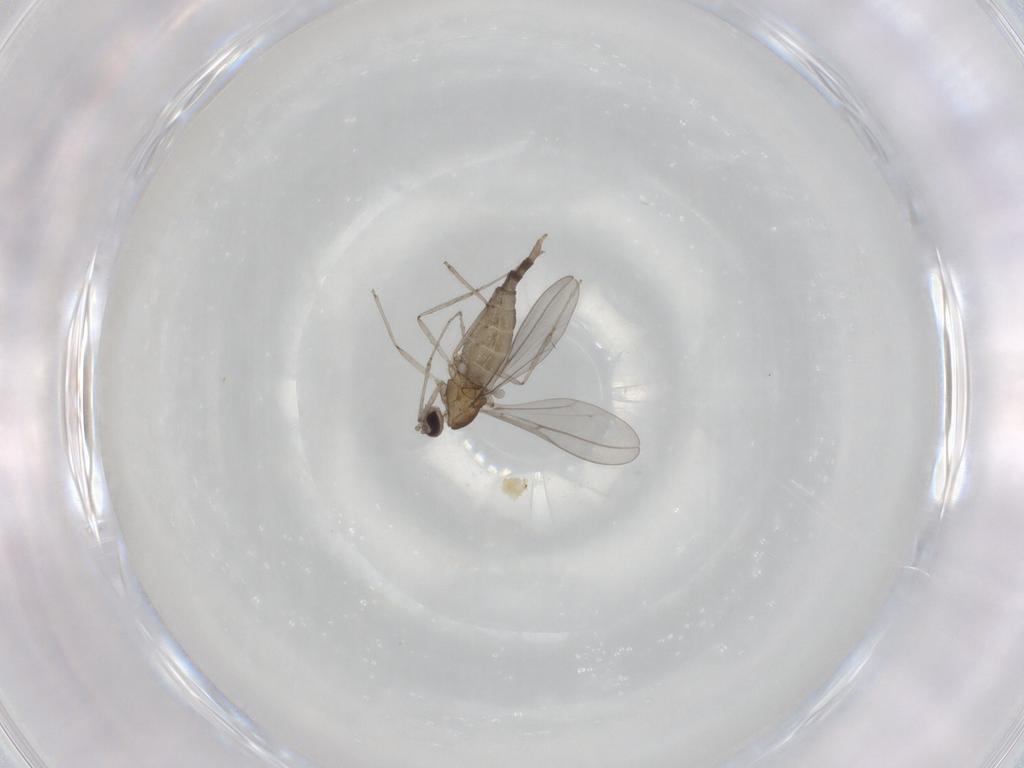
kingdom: Animalia
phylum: Arthropoda
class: Insecta
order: Diptera
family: Cecidomyiidae
